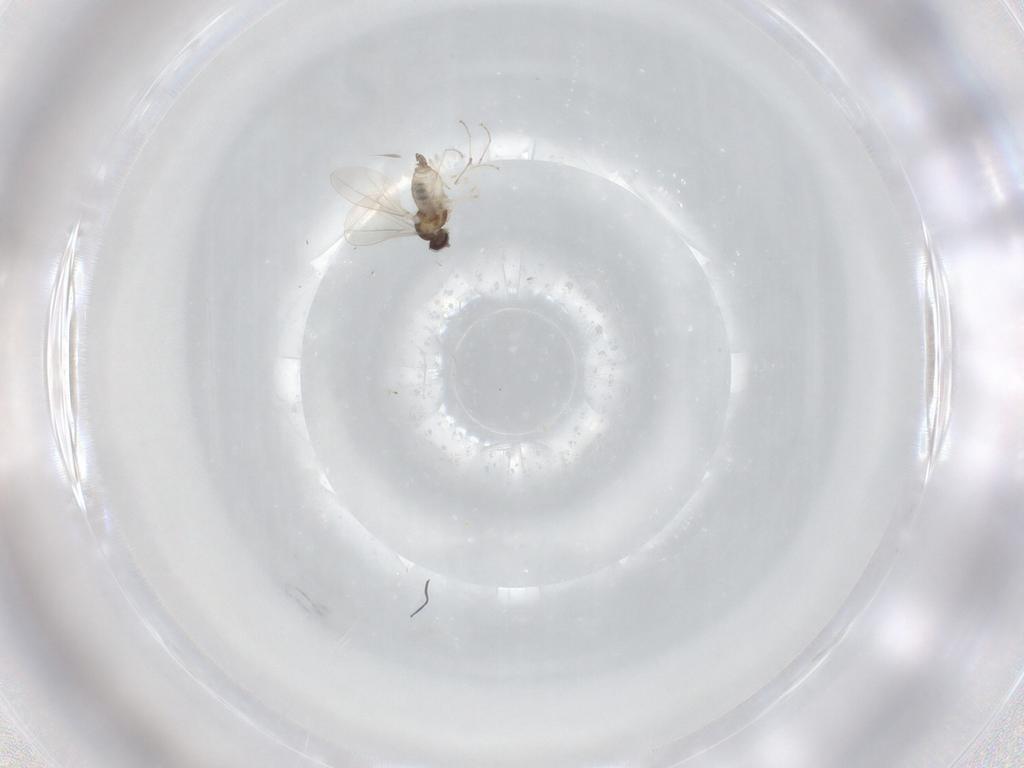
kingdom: Animalia
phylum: Arthropoda
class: Insecta
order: Diptera
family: Cecidomyiidae
